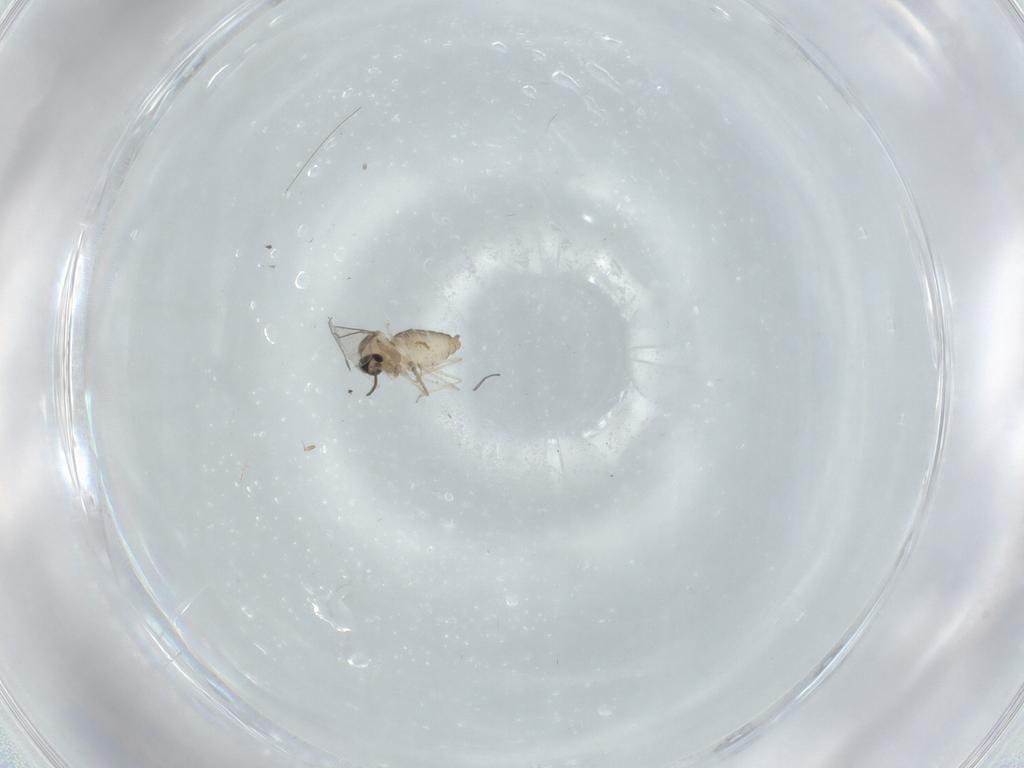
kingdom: Animalia
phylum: Arthropoda
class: Insecta
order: Diptera
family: Cecidomyiidae
